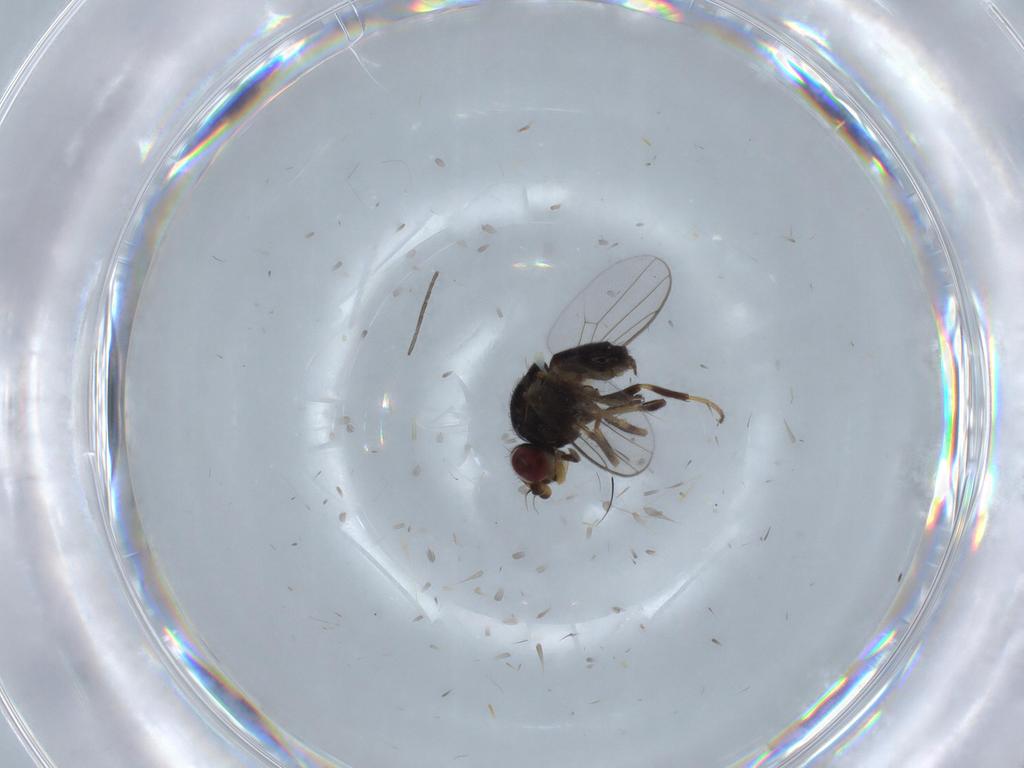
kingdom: Animalia
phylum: Arthropoda
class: Insecta
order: Diptera
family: Chloropidae
